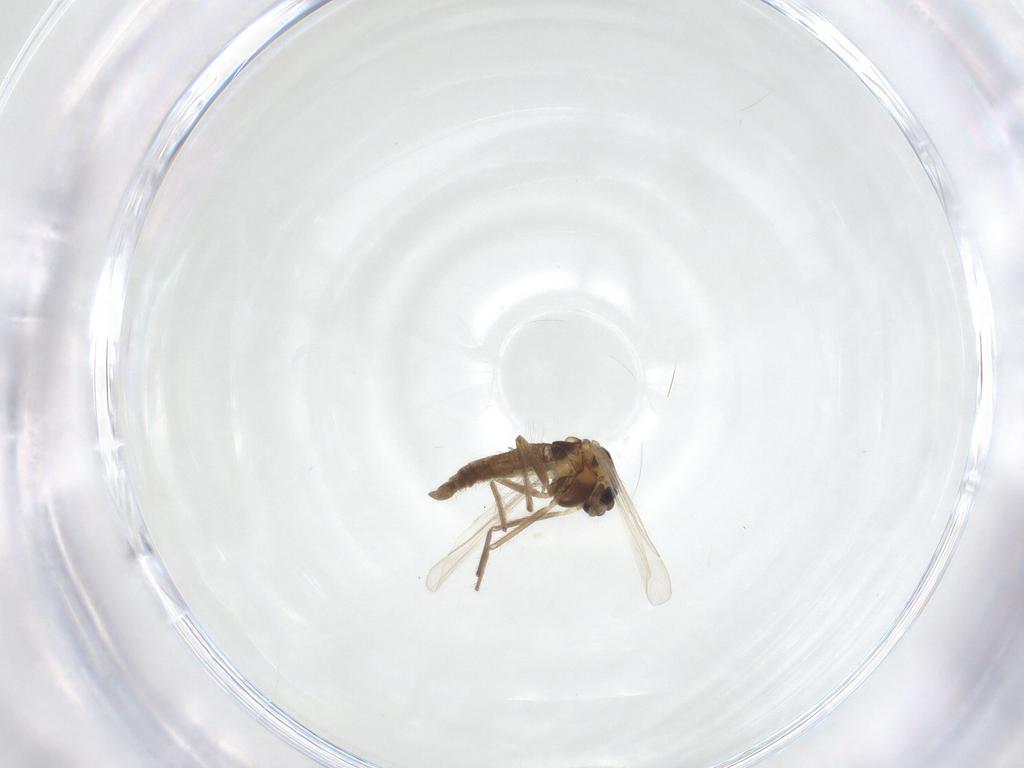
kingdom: Animalia
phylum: Arthropoda
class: Insecta
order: Diptera
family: Chironomidae
